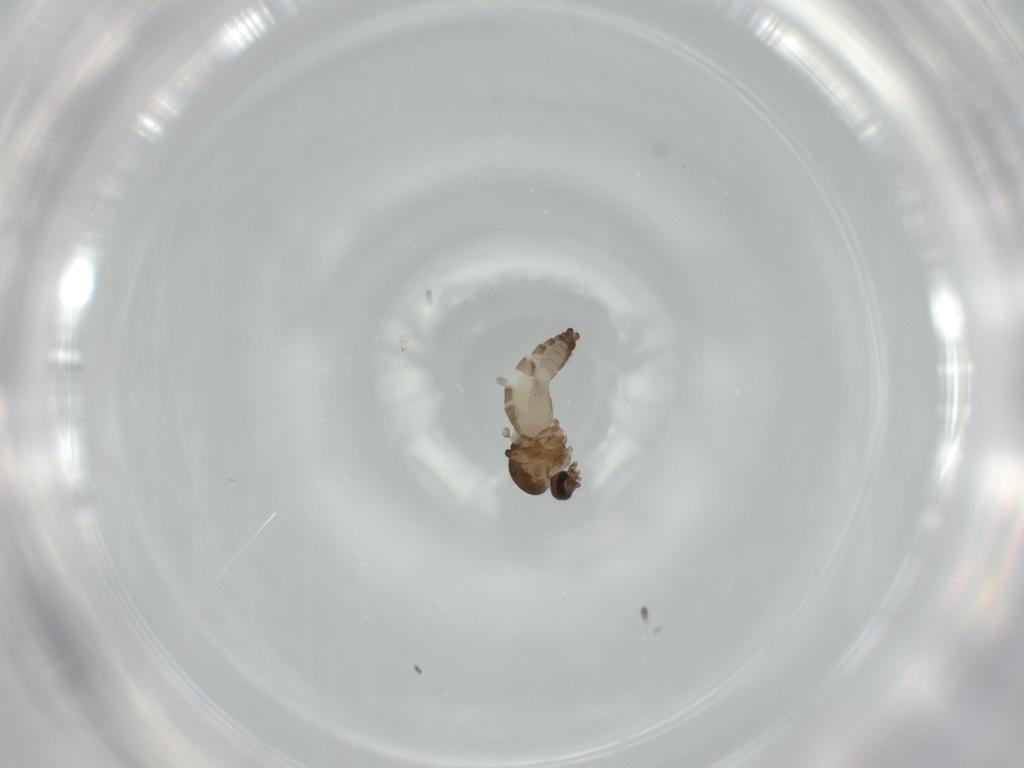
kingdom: Animalia
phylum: Arthropoda
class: Insecta
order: Diptera
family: Ceratopogonidae
